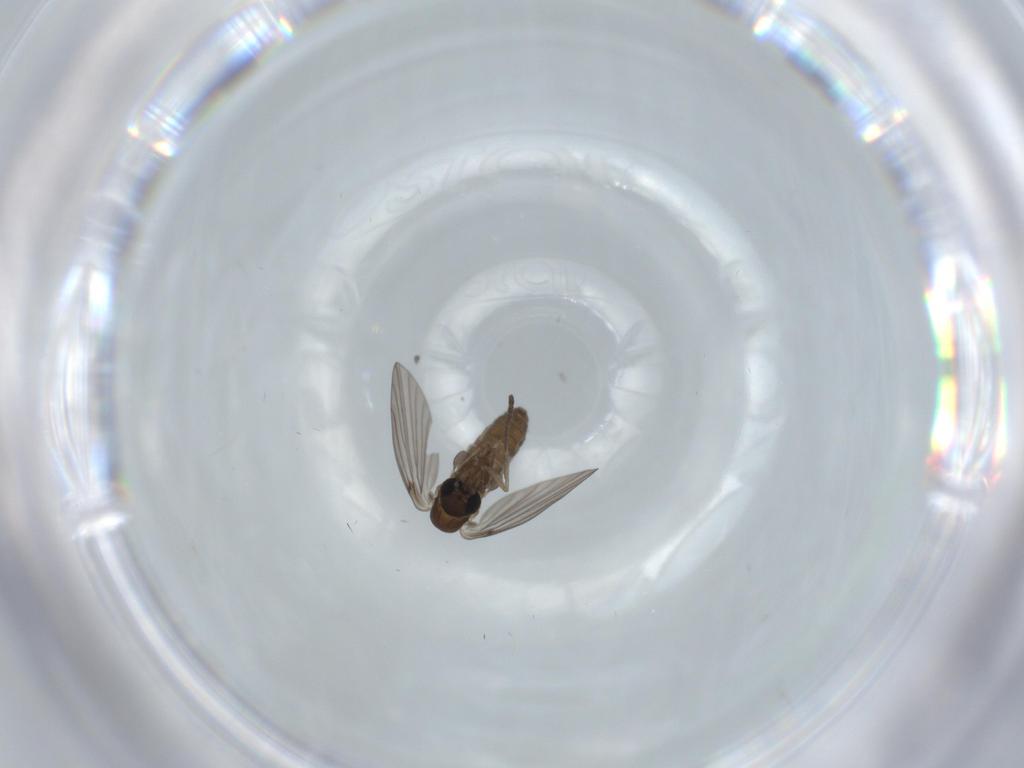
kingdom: Animalia
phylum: Arthropoda
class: Insecta
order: Diptera
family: Psychodidae
